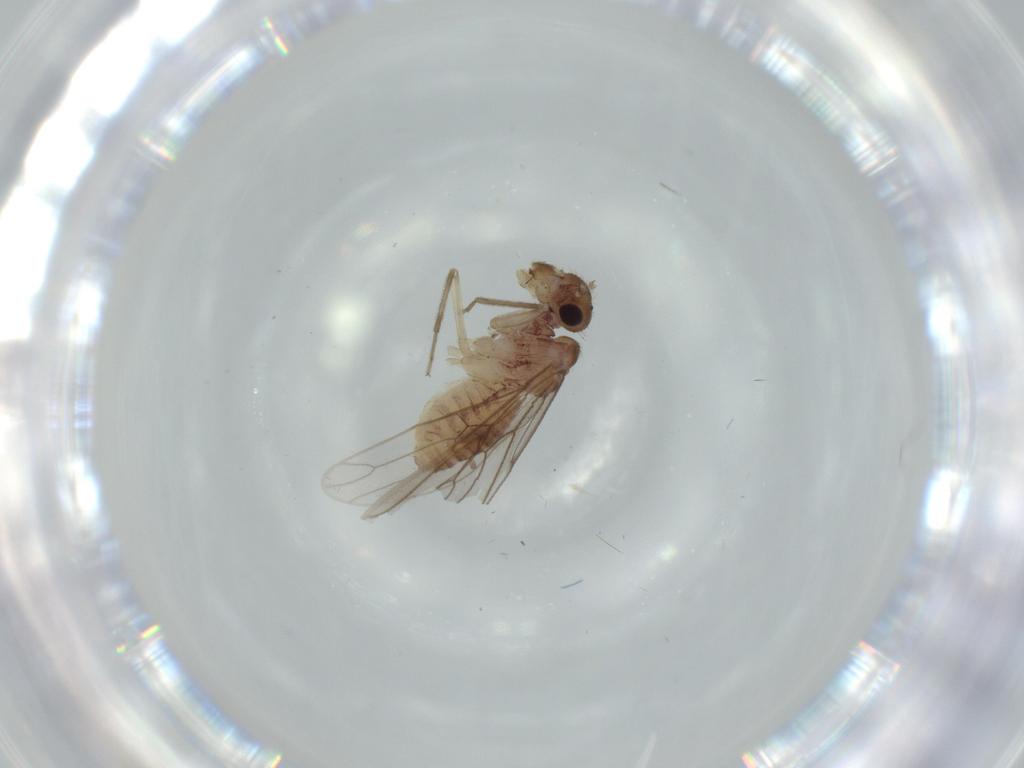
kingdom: Animalia
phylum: Arthropoda
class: Insecta
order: Psocodea
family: Cladiopsocidae
